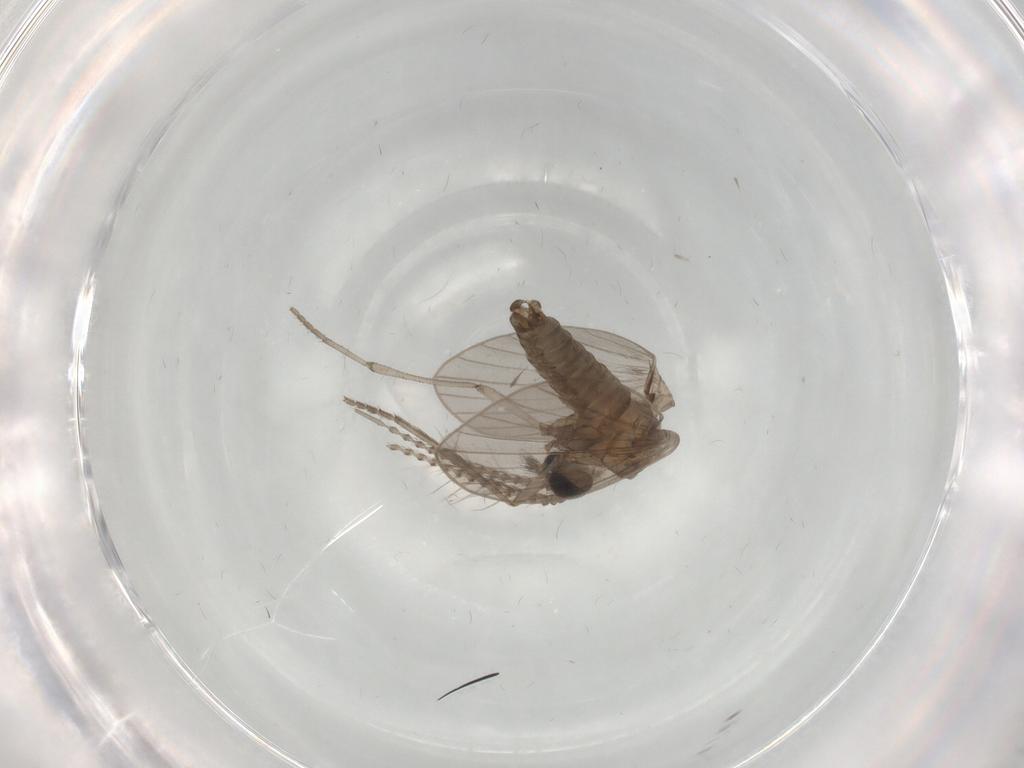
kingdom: Animalia
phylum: Arthropoda
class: Insecta
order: Diptera
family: Psychodidae
